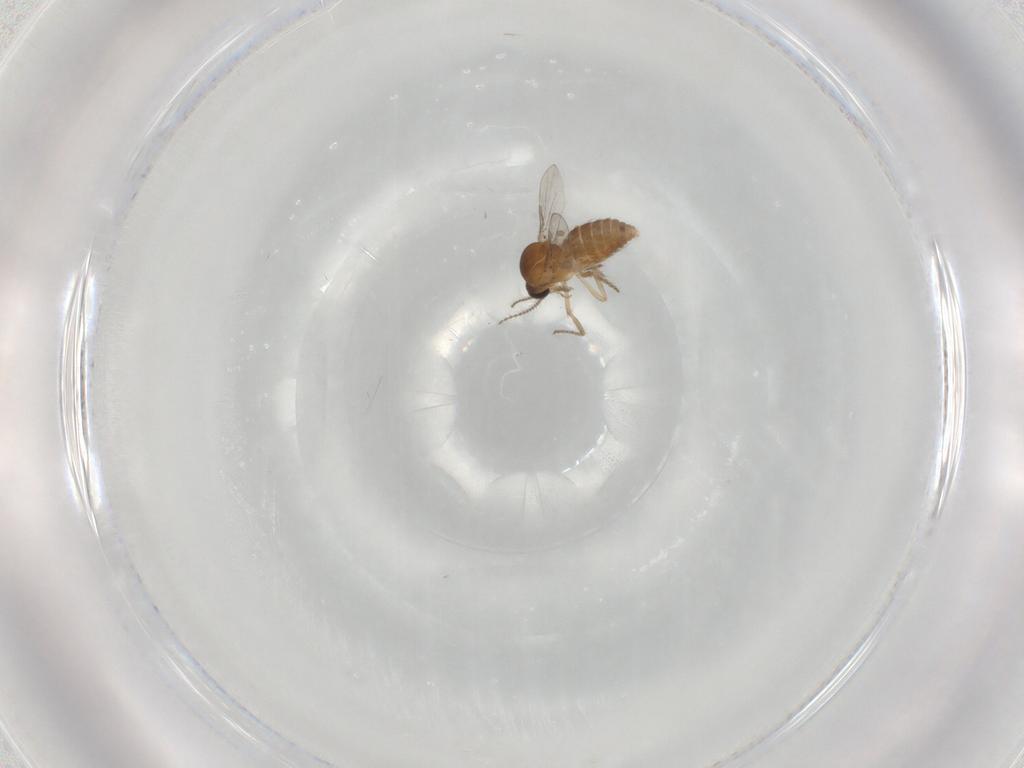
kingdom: Animalia
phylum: Arthropoda
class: Insecta
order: Diptera
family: Ceratopogonidae
